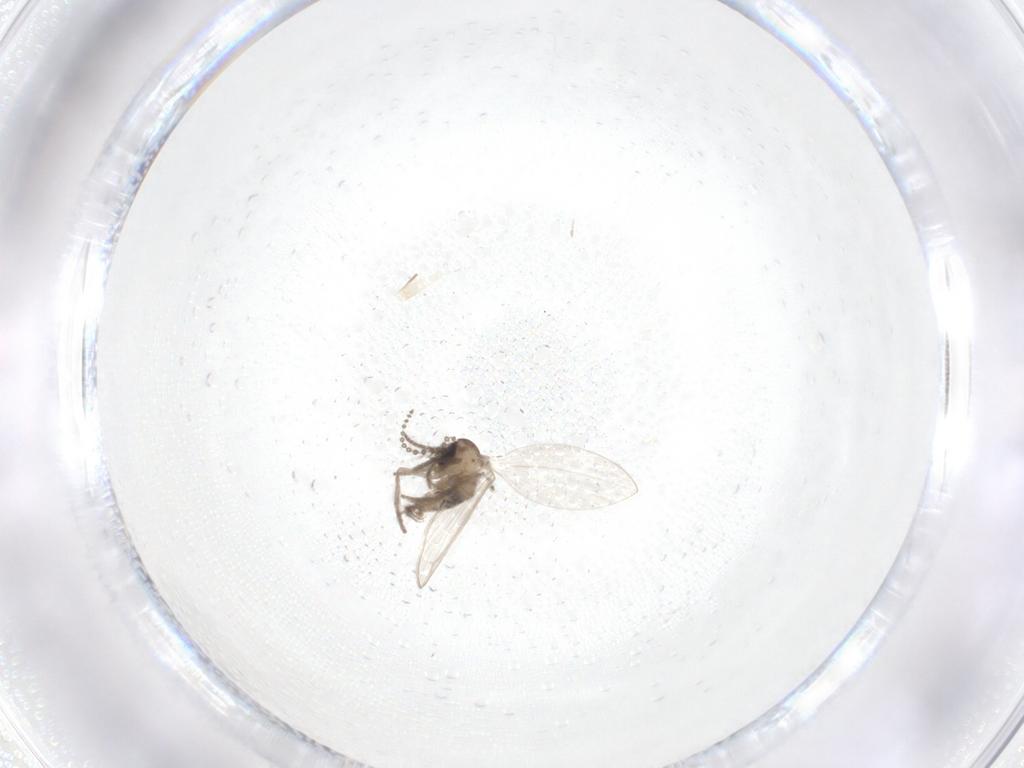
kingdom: Animalia
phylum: Arthropoda
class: Insecta
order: Diptera
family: Psychodidae
